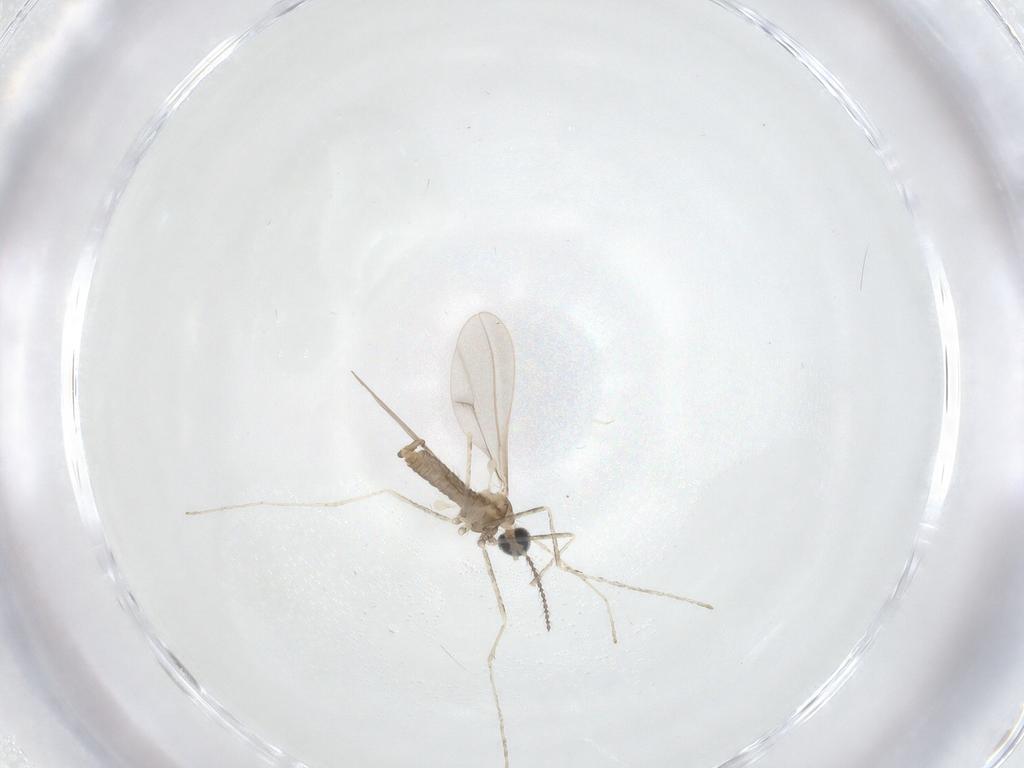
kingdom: Animalia
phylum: Arthropoda
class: Insecta
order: Diptera
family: Cecidomyiidae
